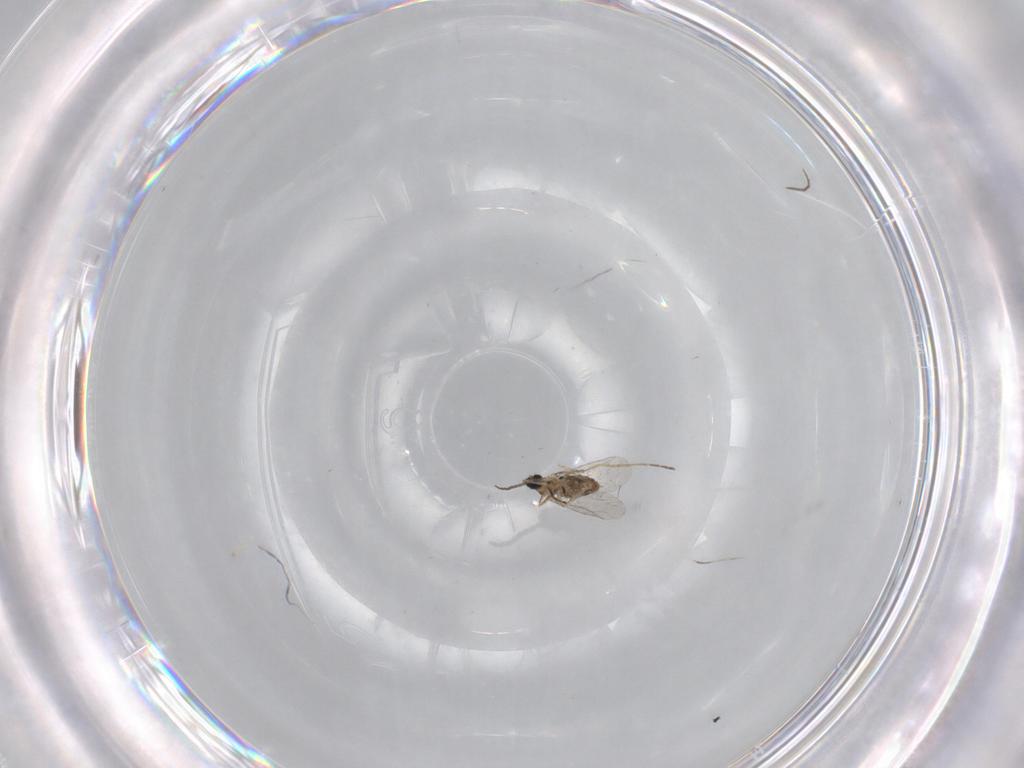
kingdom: Animalia
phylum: Arthropoda
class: Insecta
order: Diptera
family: Cecidomyiidae
